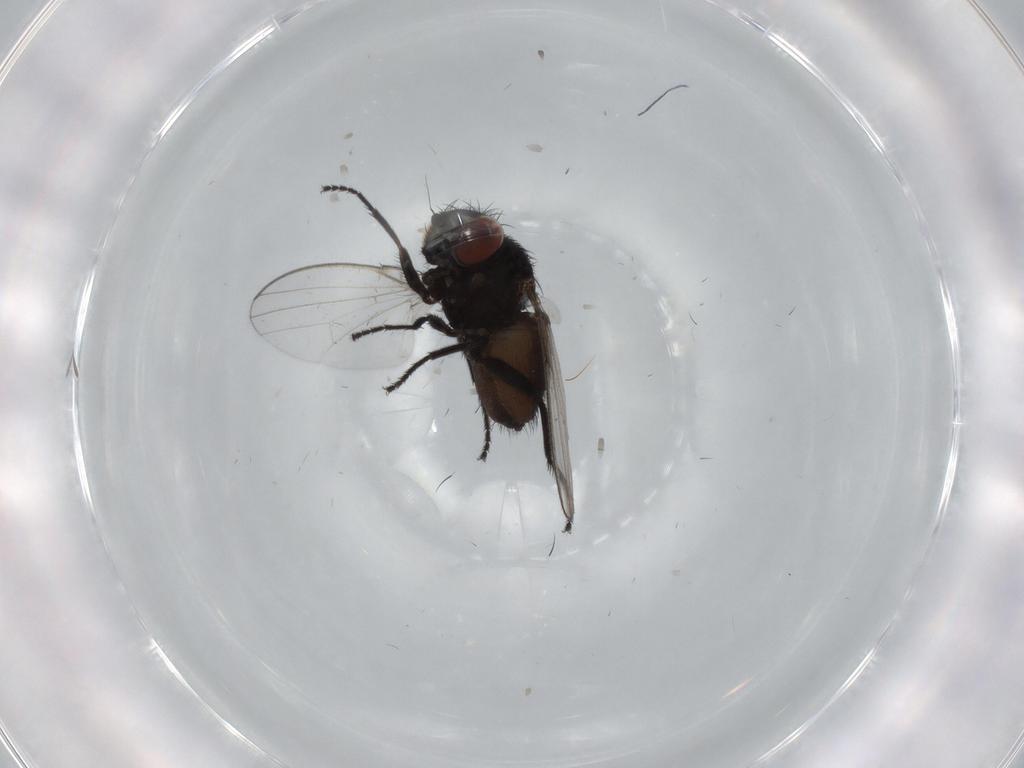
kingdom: Animalia
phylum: Arthropoda
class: Insecta
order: Diptera
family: Milichiidae
